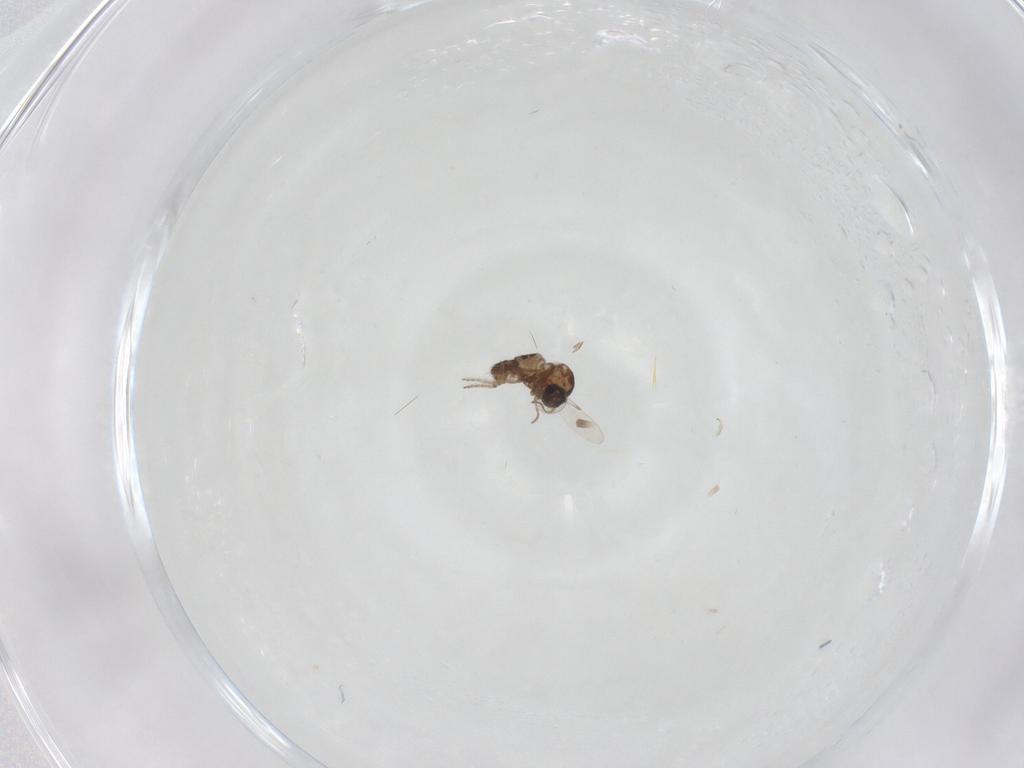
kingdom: Animalia
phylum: Arthropoda
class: Insecta
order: Diptera
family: Ceratopogonidae
